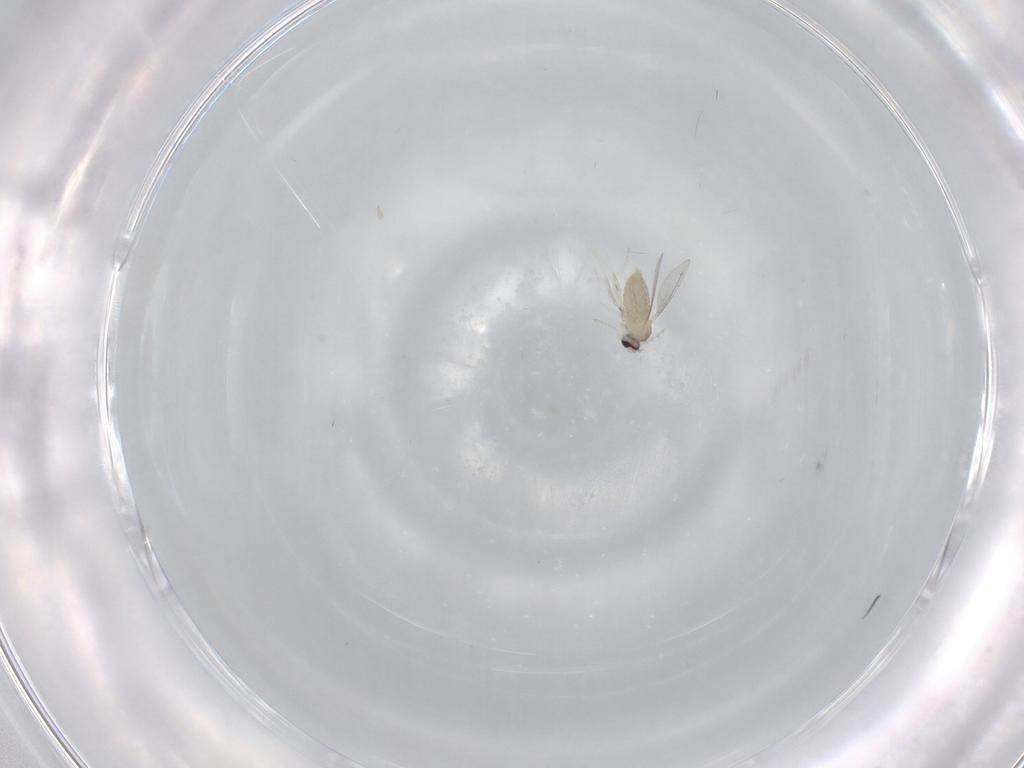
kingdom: Animalia
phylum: Arthropoda
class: Insecta
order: Diptera
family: Cecidomyiidae
